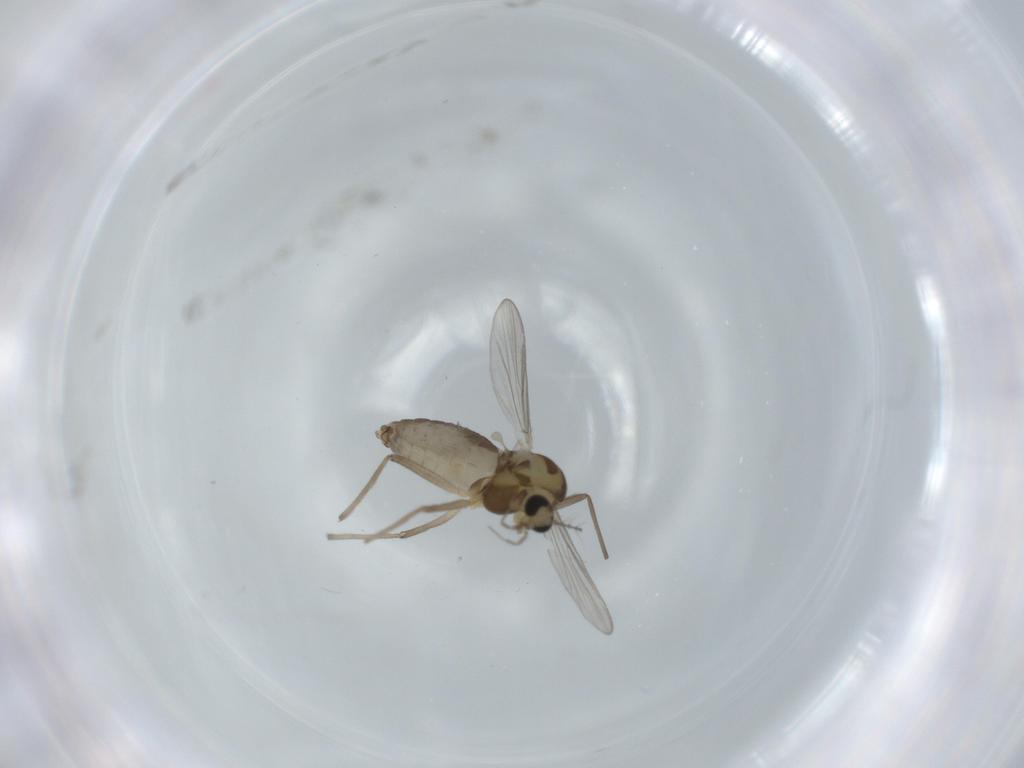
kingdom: Animalia
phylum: Arthropoda
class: Insecta
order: Diptera
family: Chironomidae
